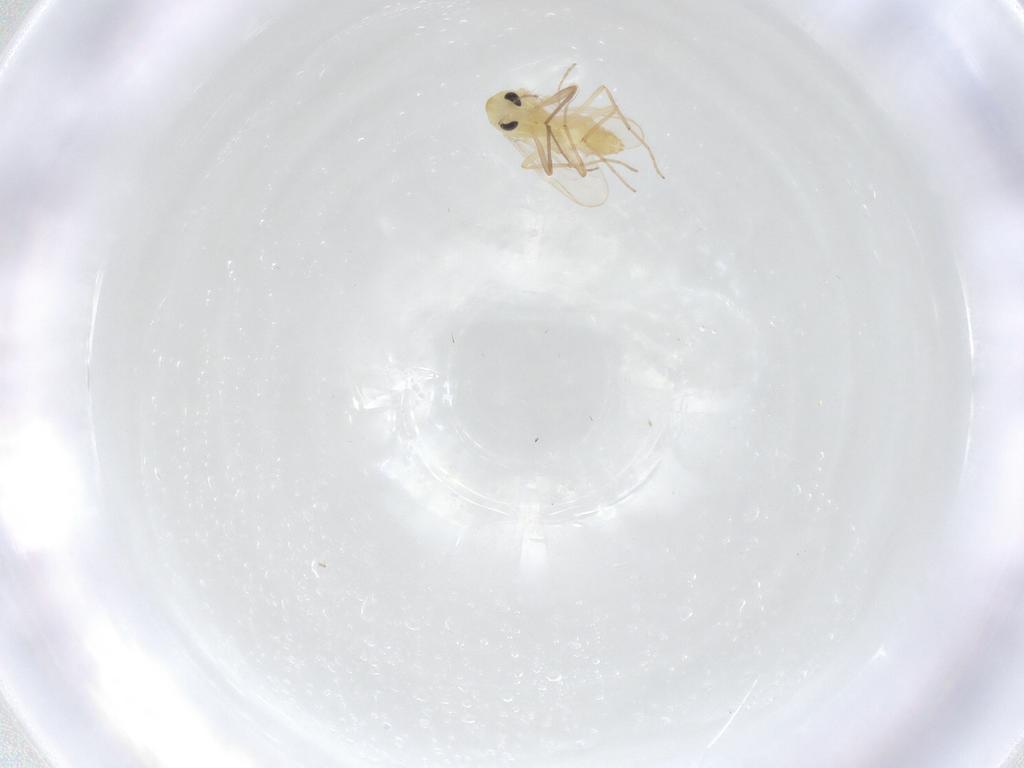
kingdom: Animalia
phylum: Arthropoda
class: Insecta
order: Diptera
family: Chironomidae
